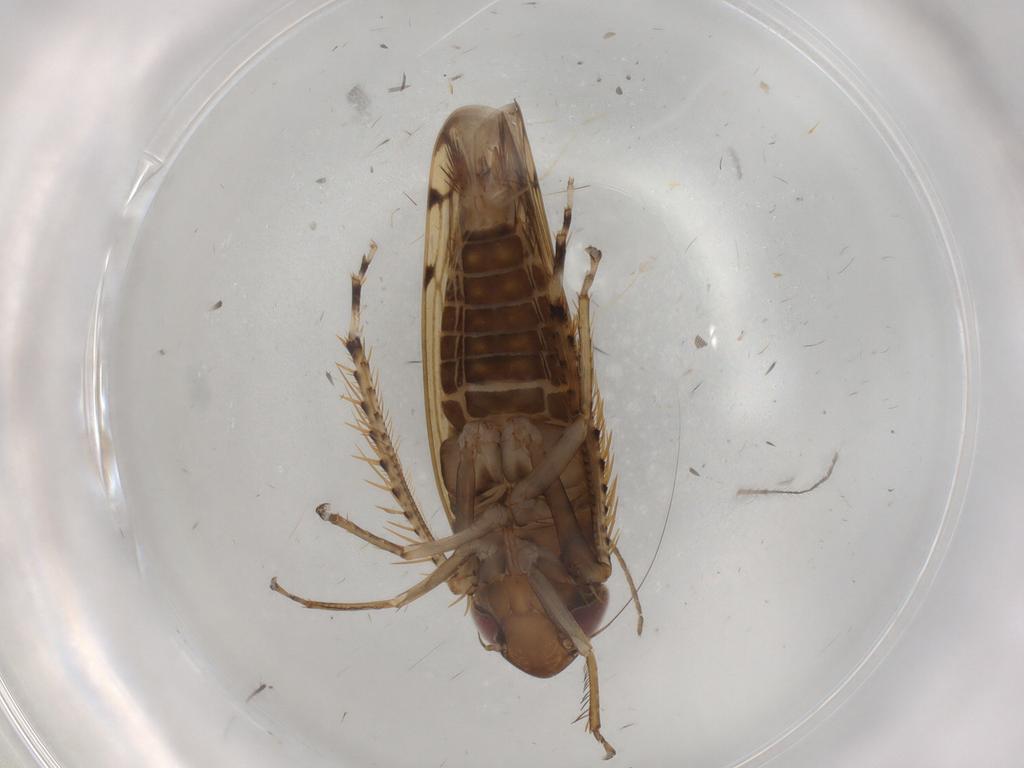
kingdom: Animalia
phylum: Arthropoda
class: Insecta
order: Hemiptera
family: Cicadellidae
